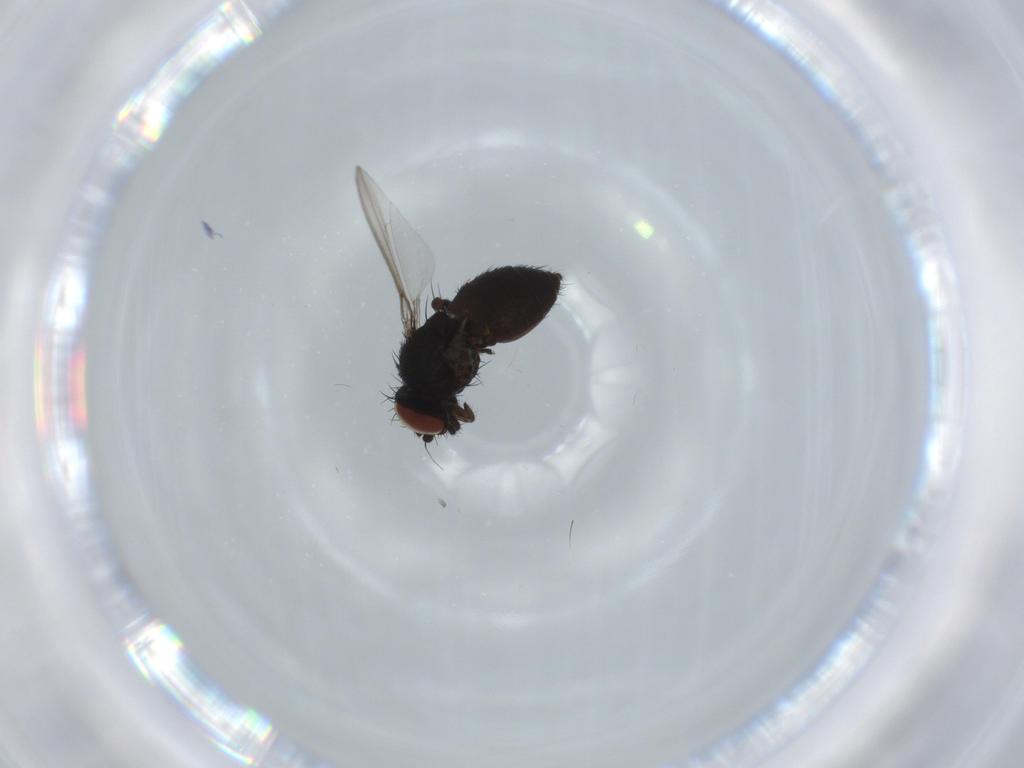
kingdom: Animalia
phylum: Arthropoda
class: Insecta
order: Diptera
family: Milichiidae
